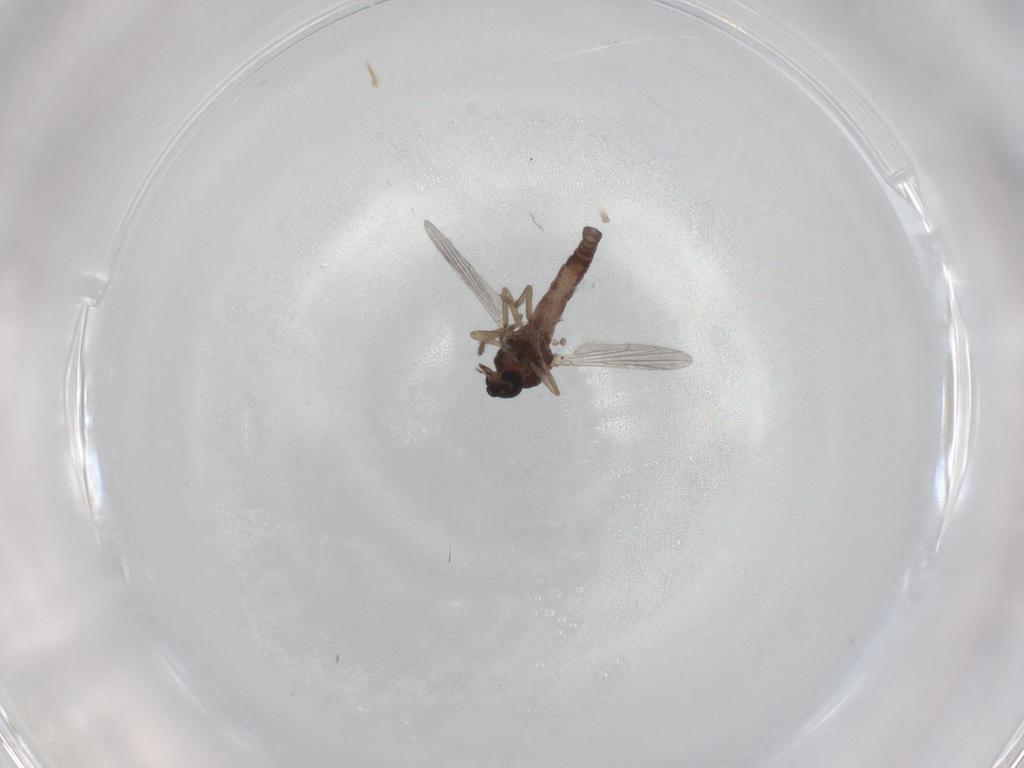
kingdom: Animalia
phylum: Arthropoda
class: Insecta
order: Diptera
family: Ceratopogonidae
